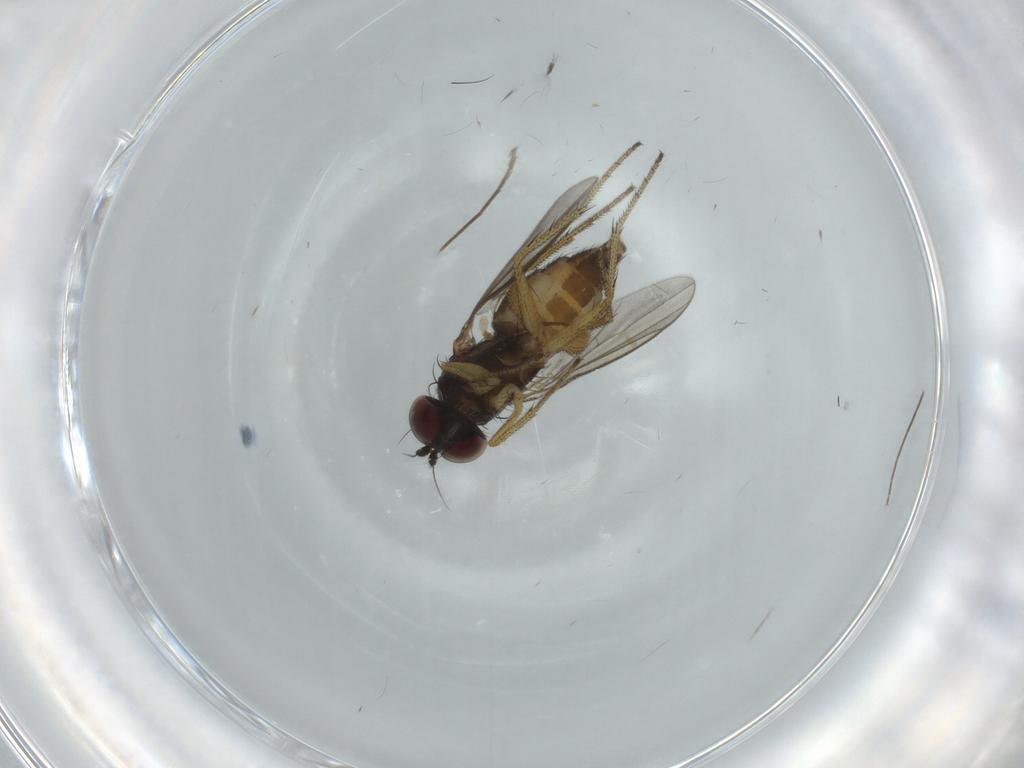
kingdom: Animalia
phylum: Arthropoda
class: Insecta
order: Diptera
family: Dolichopodidae
